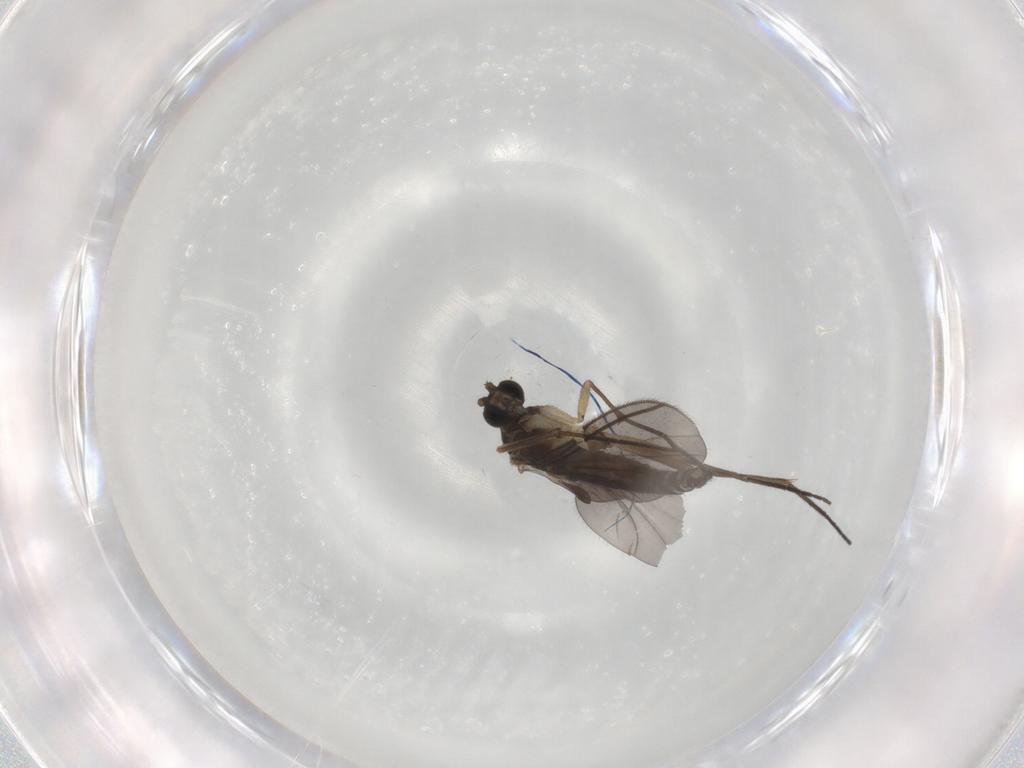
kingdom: Animalia
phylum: Arthropoda
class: Insecta
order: Diptera
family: Sciaridae
